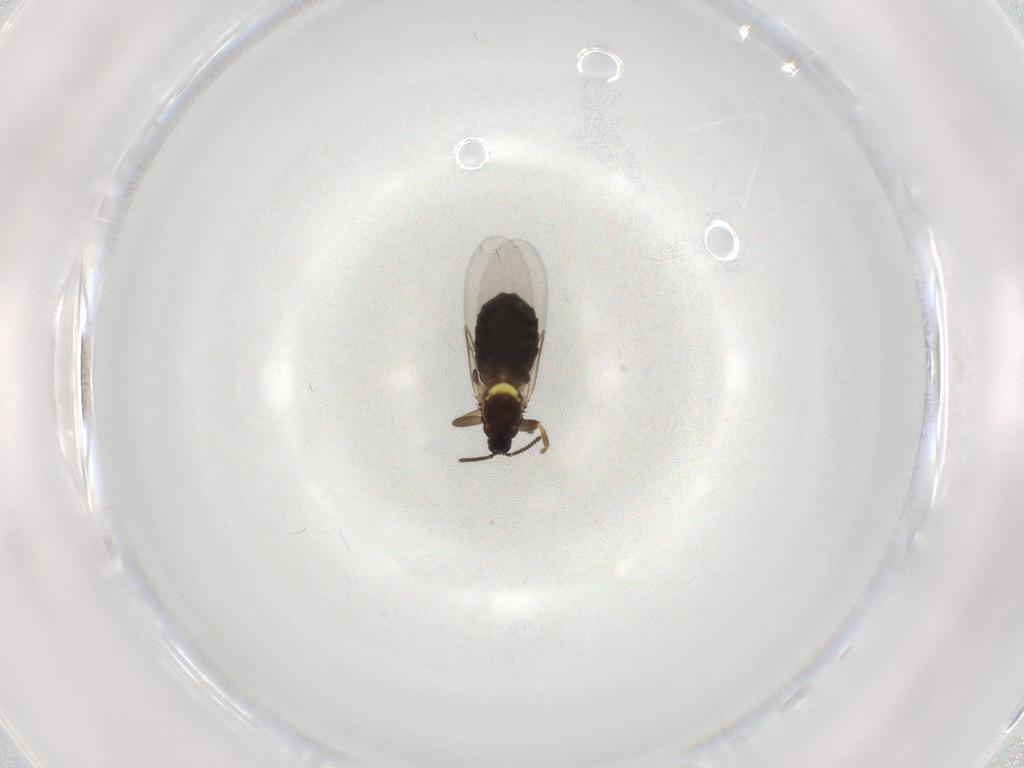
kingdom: Animalia
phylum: Arthropoda
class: Insecta
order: Diptera
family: Scatopsidae
